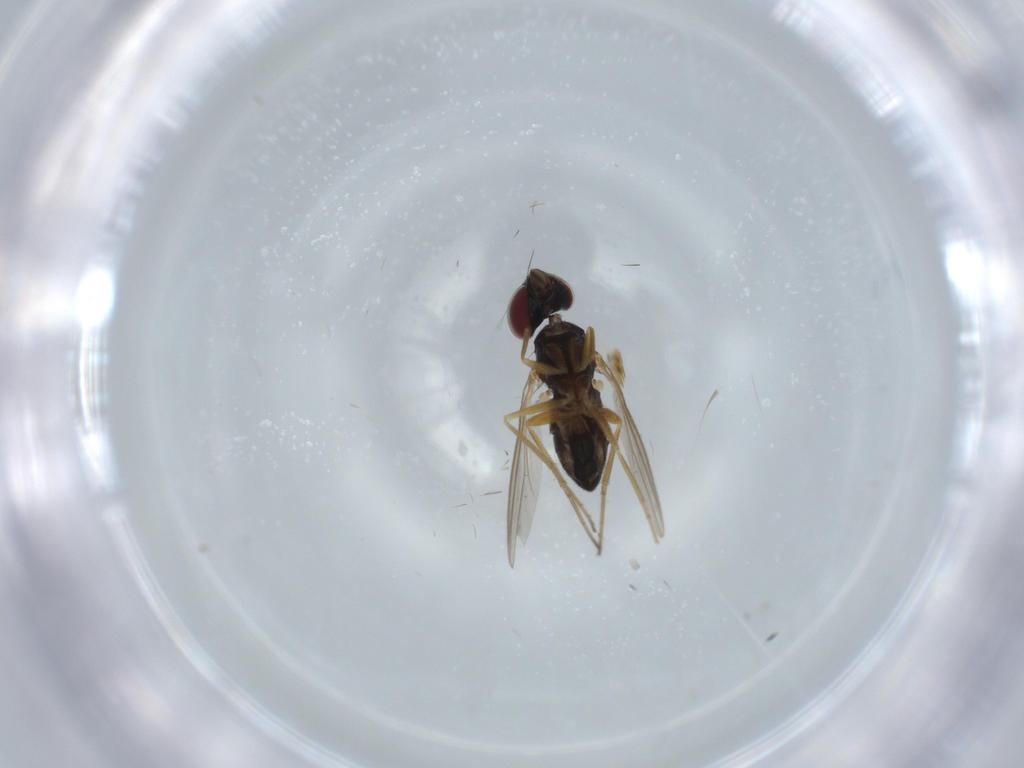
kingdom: Animalia
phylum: Arthropoda
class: Insecta
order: Diptera
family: Dolichopodidae
